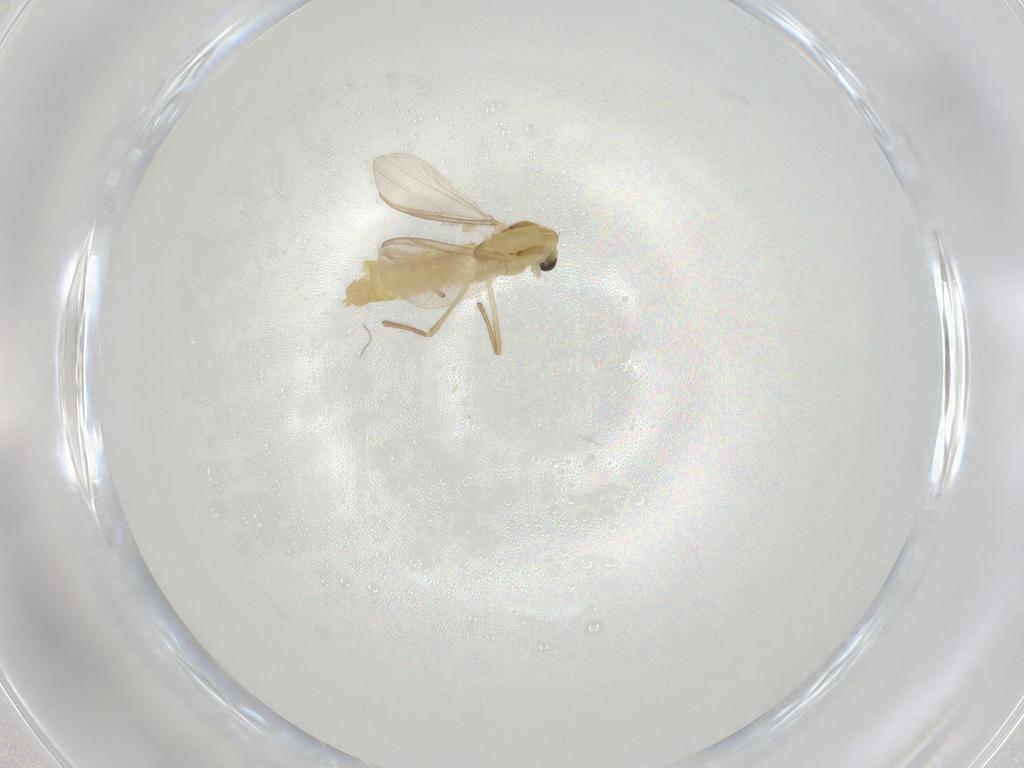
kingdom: Animalia
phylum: Arthropoda
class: Insecta
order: Diptera
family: Chironomidae
